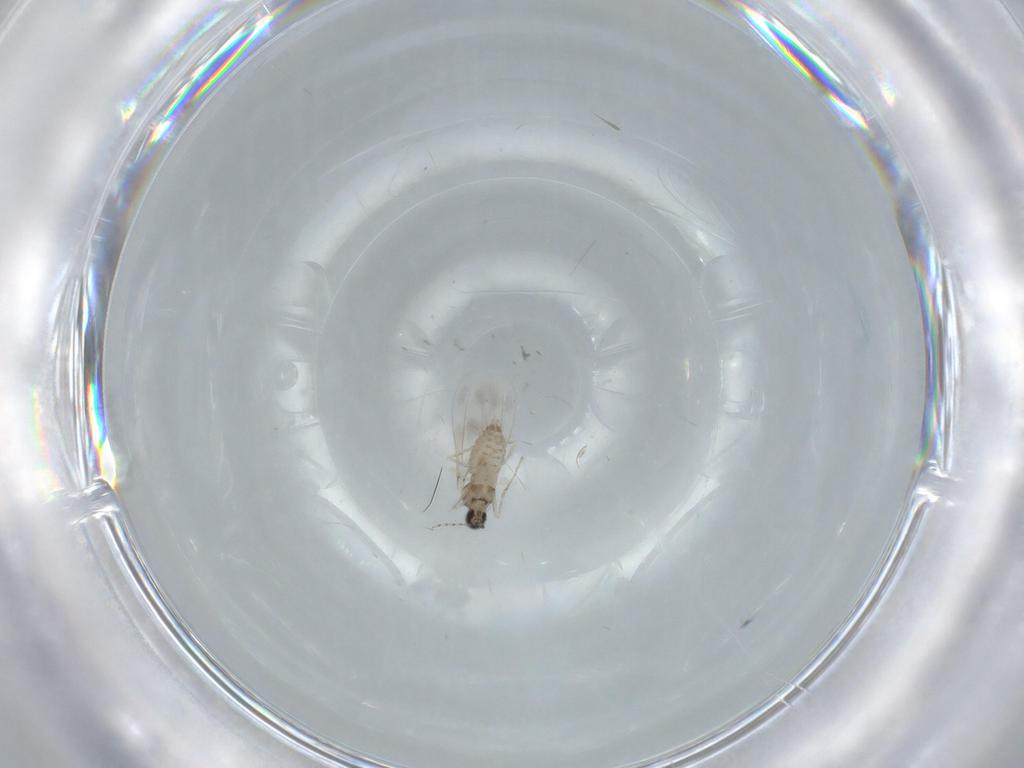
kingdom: Animalia
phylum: Arthropoda
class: Insecta
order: Diptera
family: Cecidomyiidae
